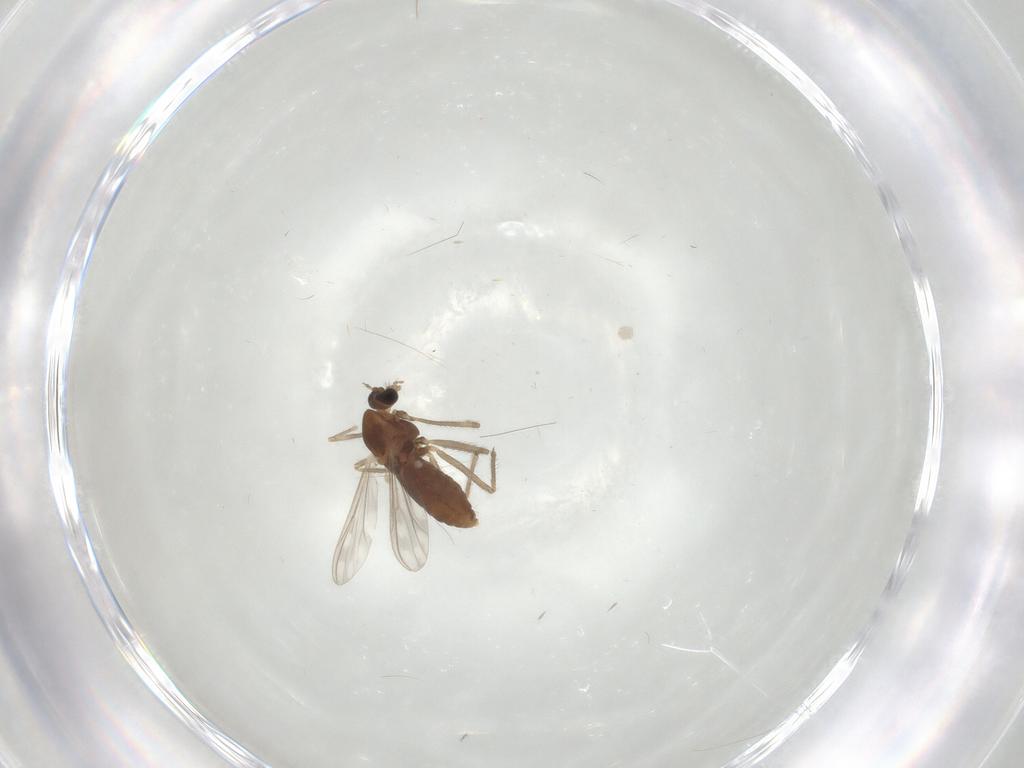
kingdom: Animalia
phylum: Arthropoda
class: Insecta
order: Diptera
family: Chironomidae
